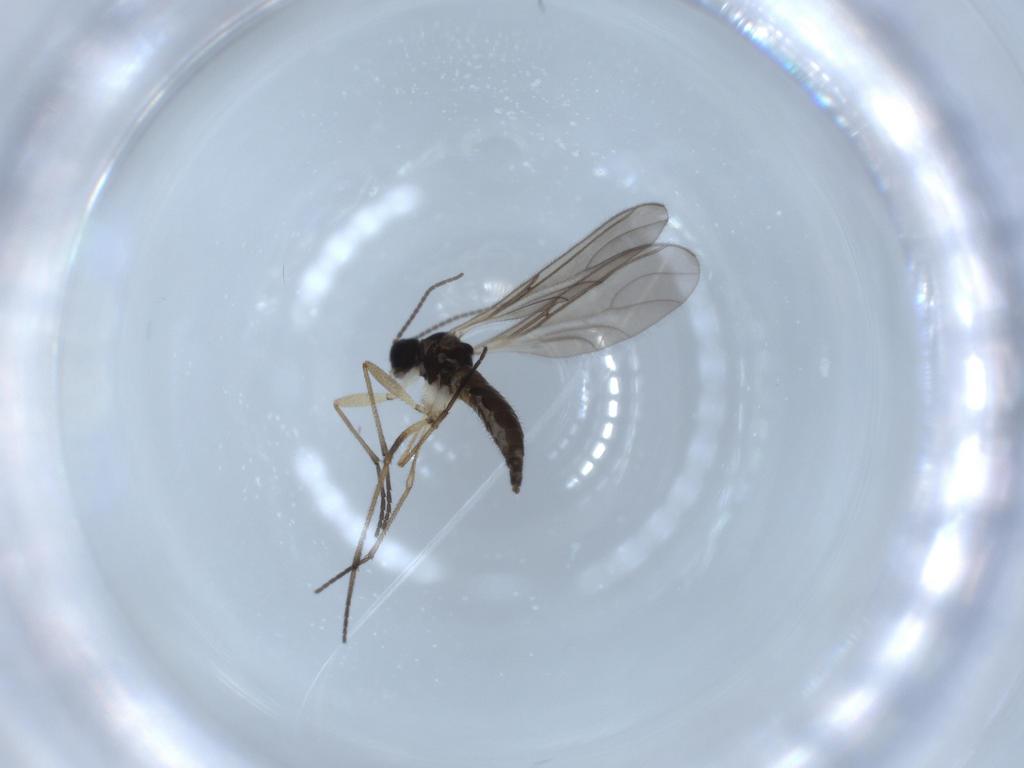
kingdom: Animalia
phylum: Arthropoda
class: Insecta
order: Diptera
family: Sciaridae
